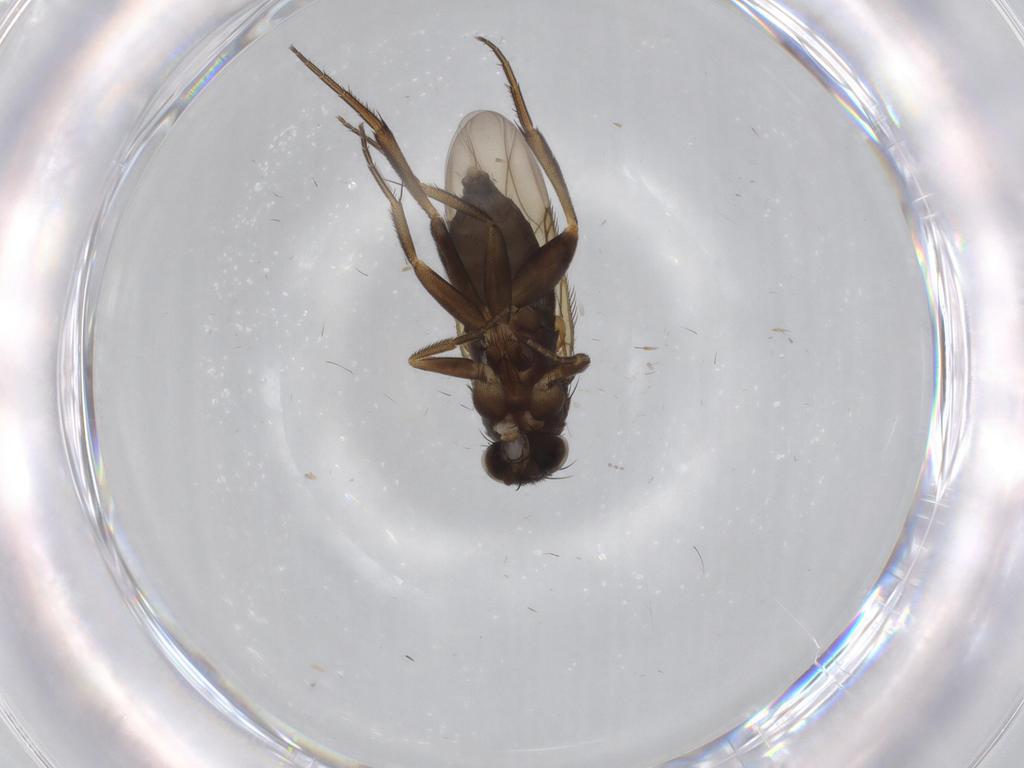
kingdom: Animalia
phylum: Arthropoda
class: Insecta
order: Diptera
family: Phoridae
